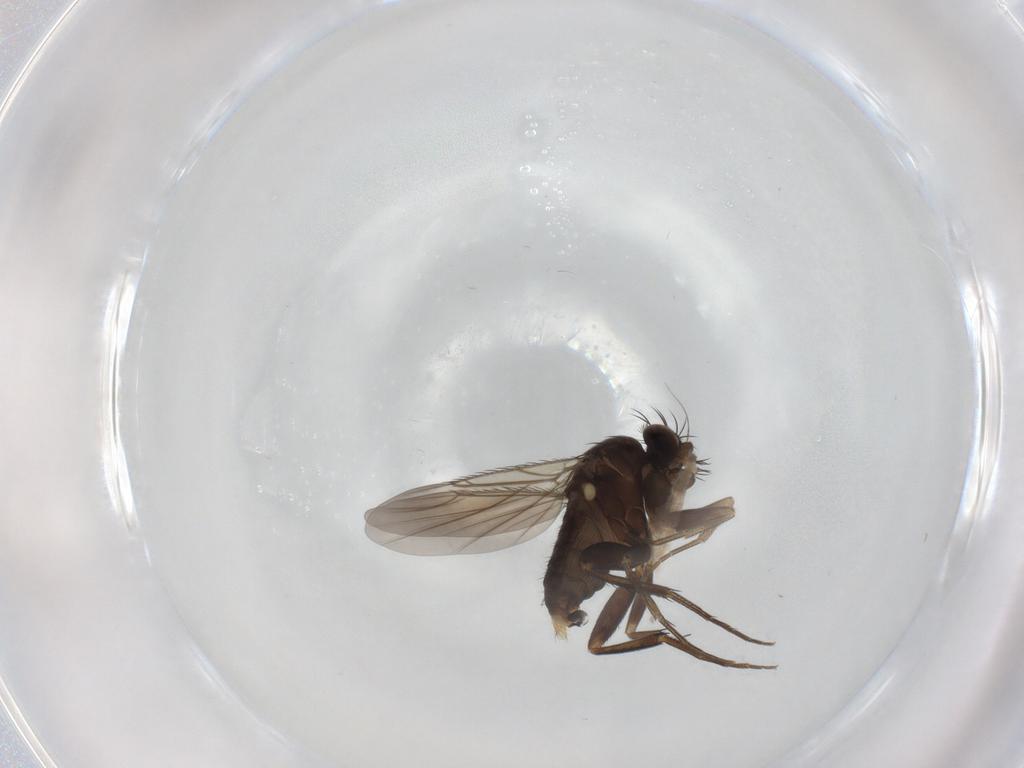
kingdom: Animalia
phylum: Arthropoda
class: Insecta
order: Diptera
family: Phoridae
